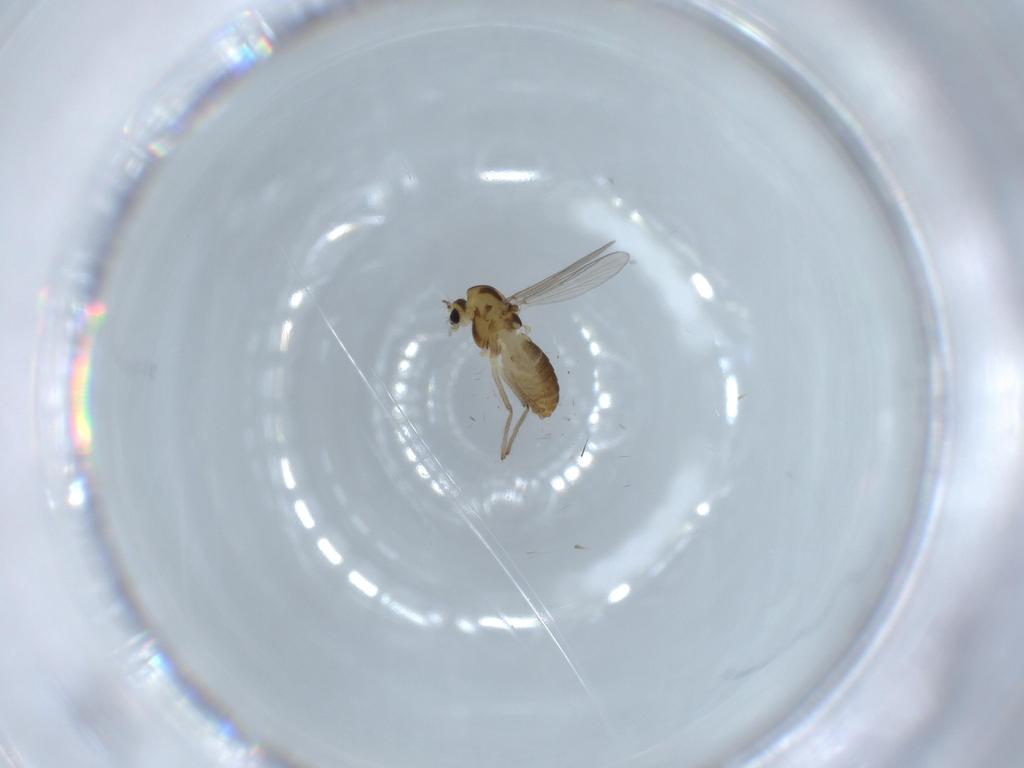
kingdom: Animalia
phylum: Arthropoda
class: Insecta
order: Diptera
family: Chironomidae
